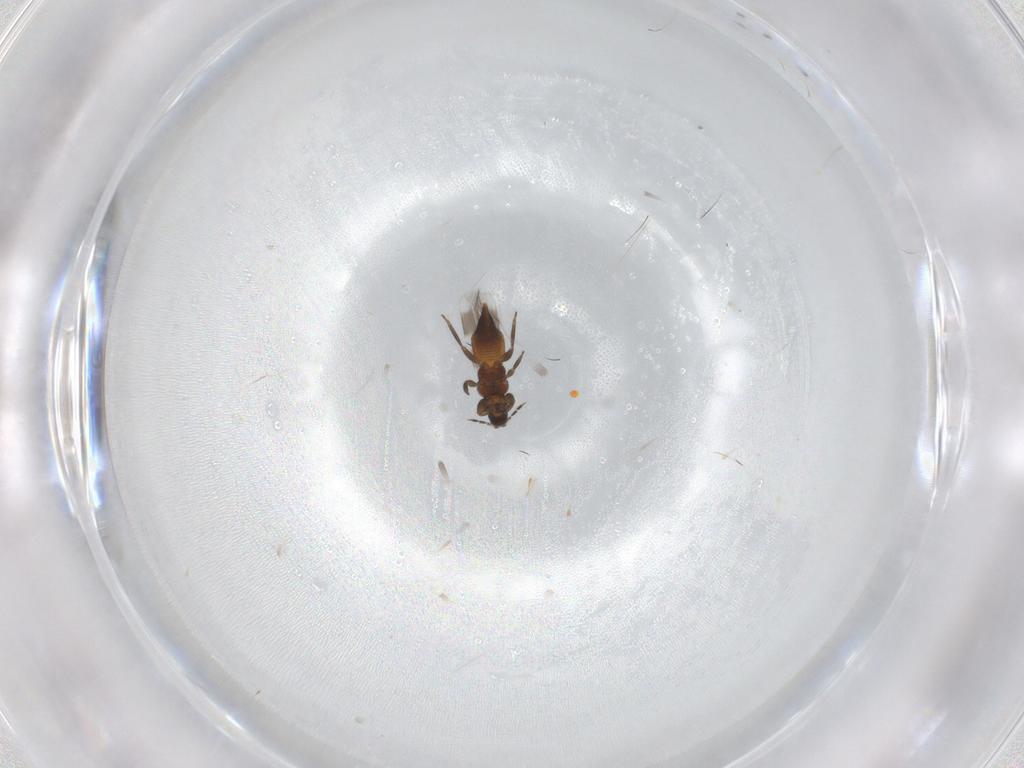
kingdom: Animalia
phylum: Arthropoda
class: Insecta
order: Thysanoptera
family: Aeolothripidae
